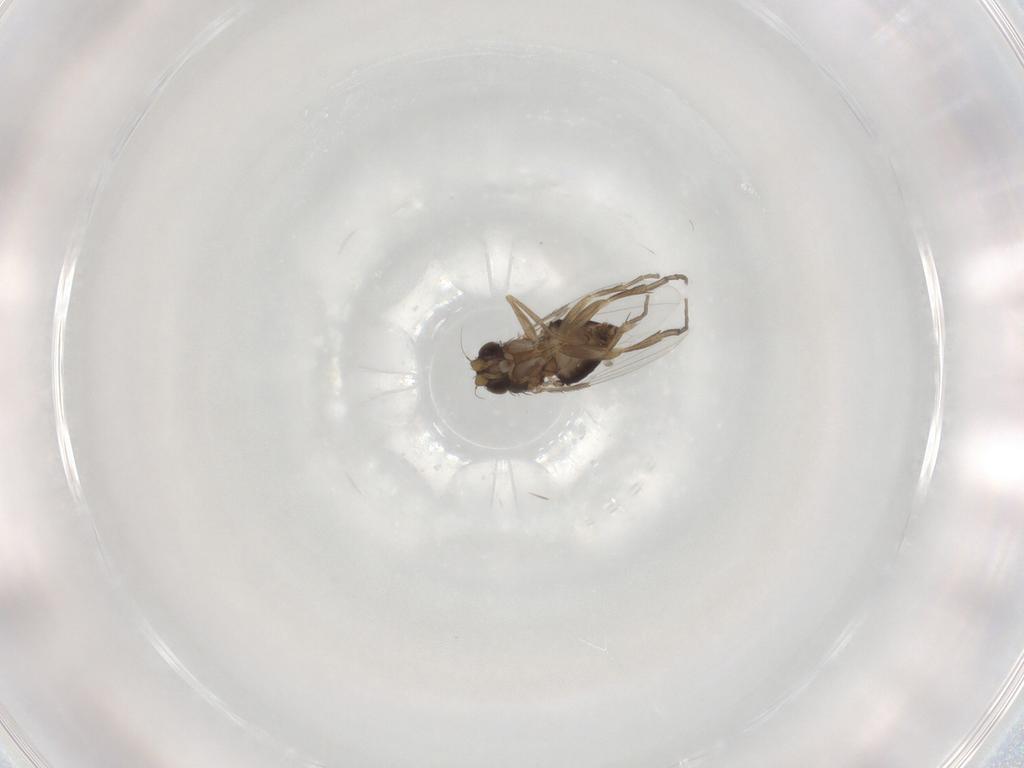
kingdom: Animalia
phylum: Arthropoda
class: Insecta
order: Diptera
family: Phoridae
